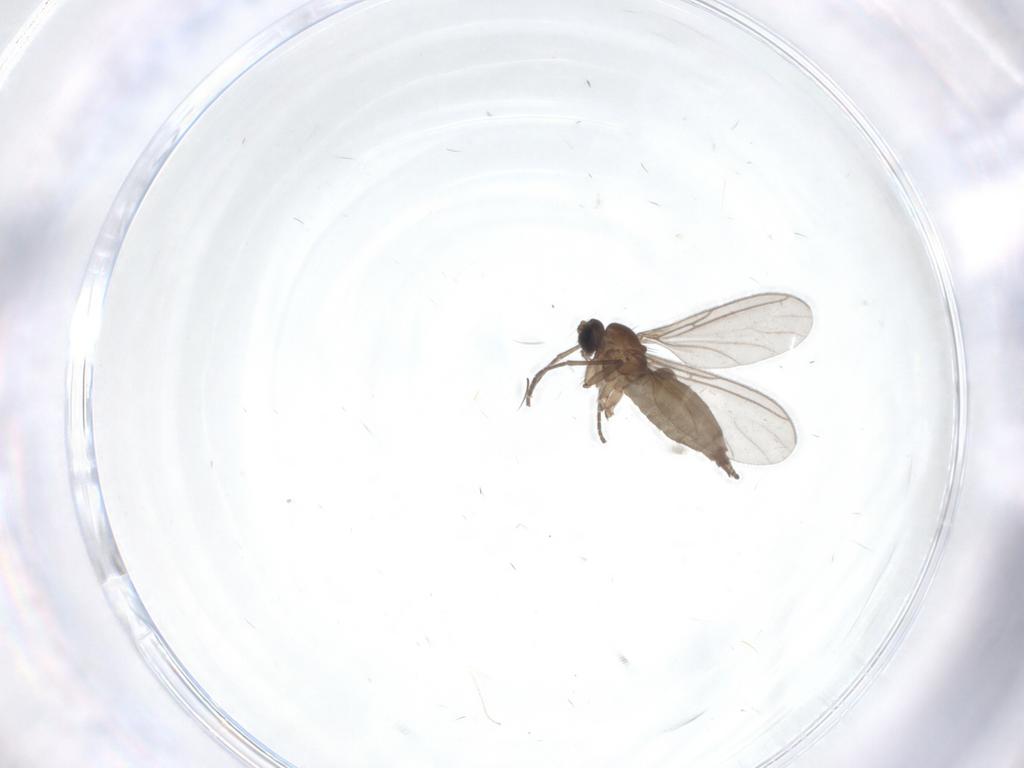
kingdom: Animalia
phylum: Arthropoda
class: Insecta
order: Diptera
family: Sciaridae
